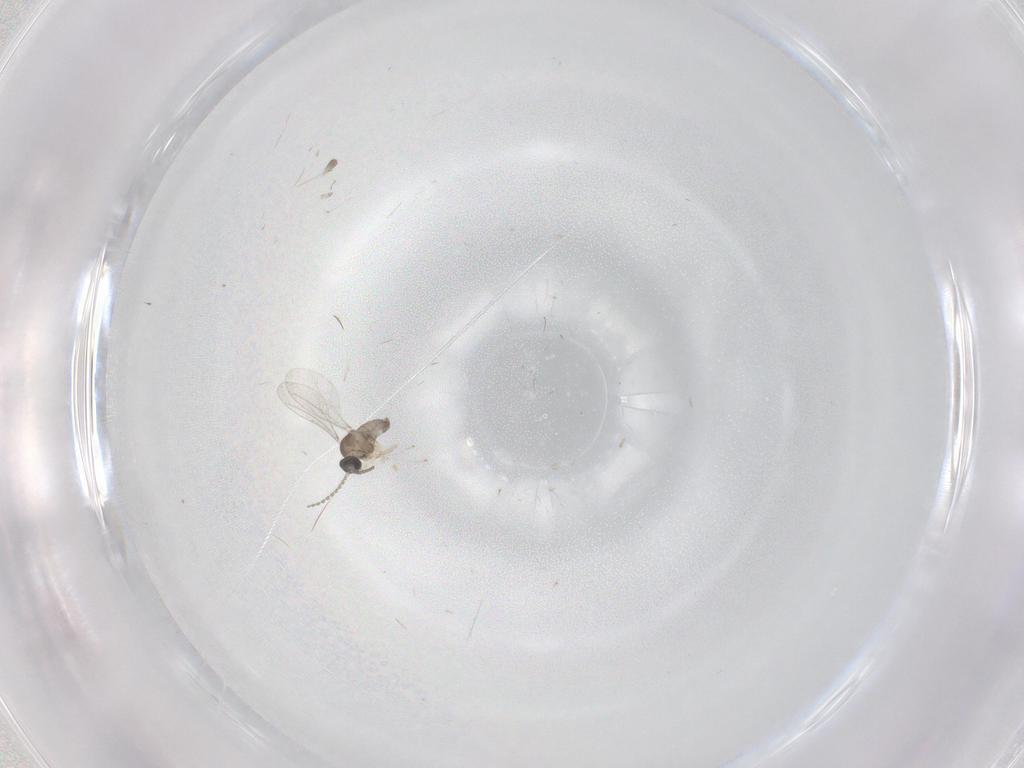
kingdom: Animalia
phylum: Arthropoda
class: Insecta
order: Diptera
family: Cecidomyiidae
